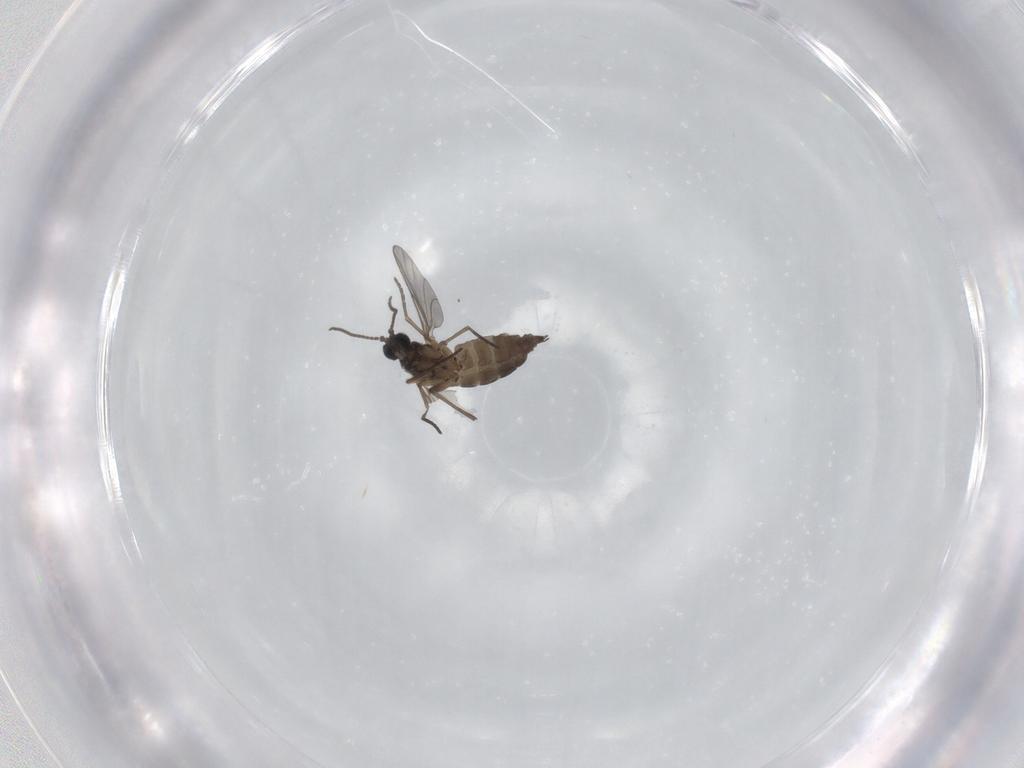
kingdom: Animalia
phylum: Arthropoda
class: Insecta
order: Diptera
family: Sciaridae
